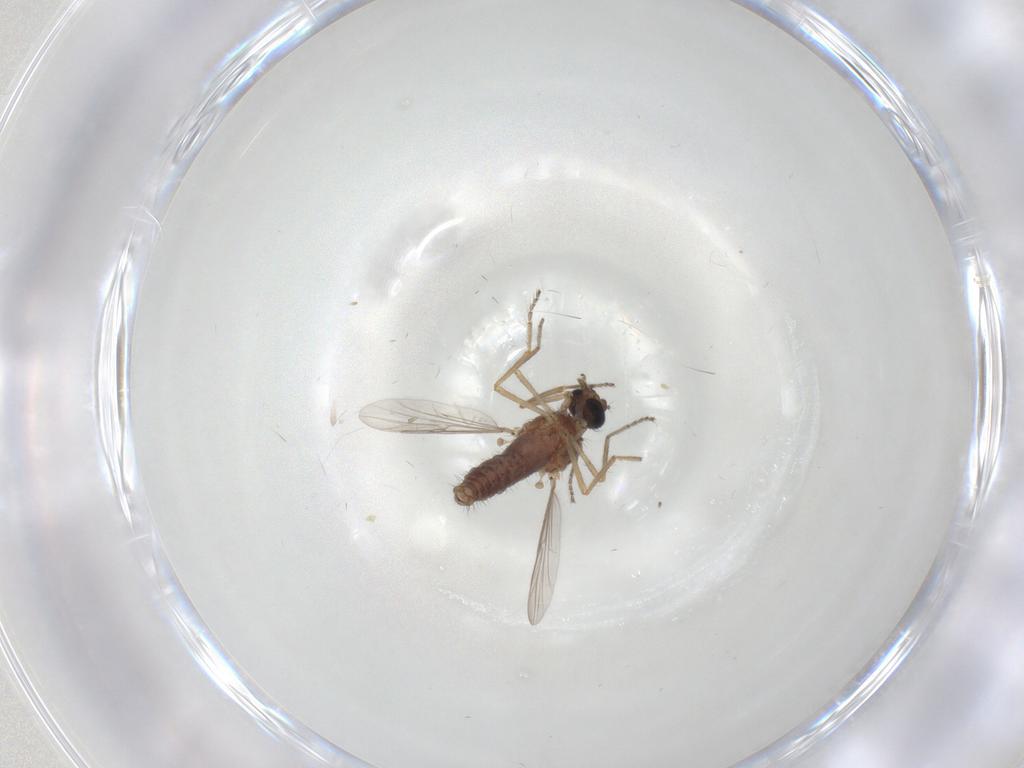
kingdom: Animalia
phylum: Arthropoda
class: Insecta
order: Diptera
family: Ceratopogonidae
